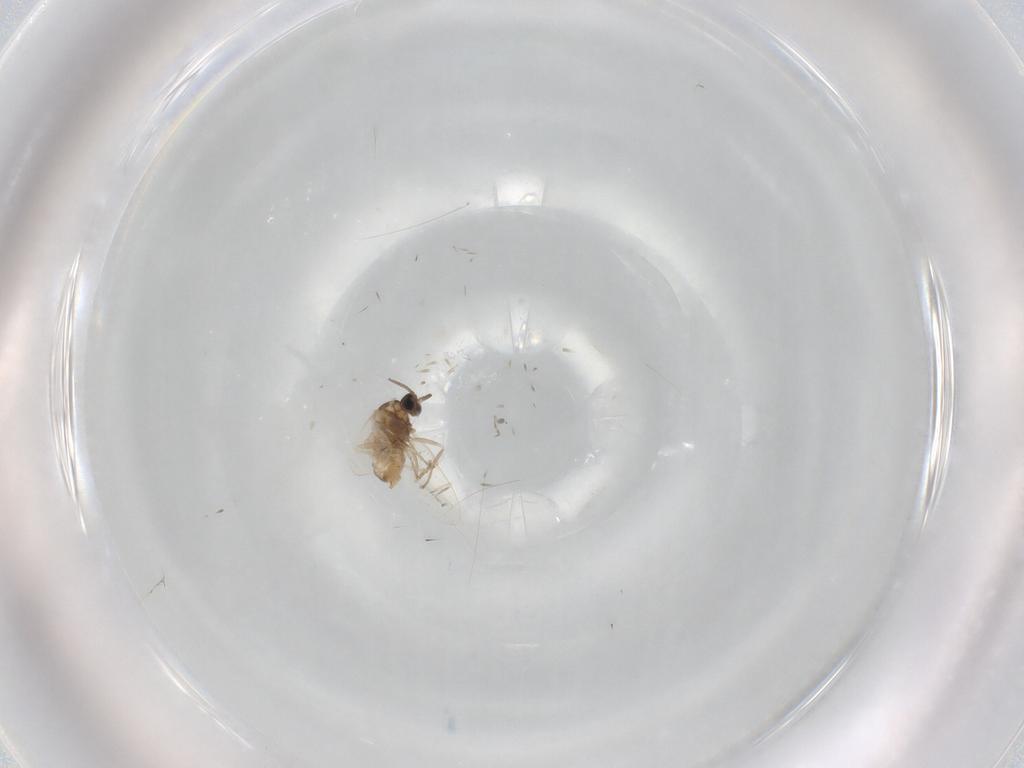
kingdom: Animalia
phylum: Arthropoda
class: Insecta
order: Diptera
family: Cecidomyiidae
